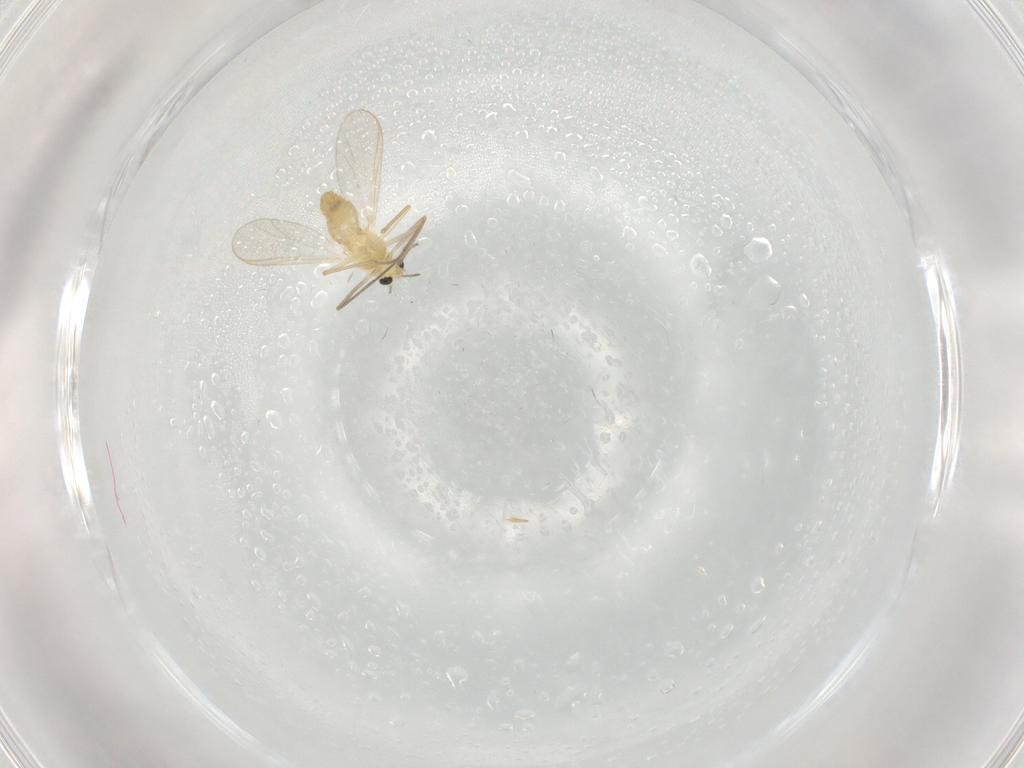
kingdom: Animalia
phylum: Arthropoda
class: Insecta
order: Diptera
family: Chironomidae
